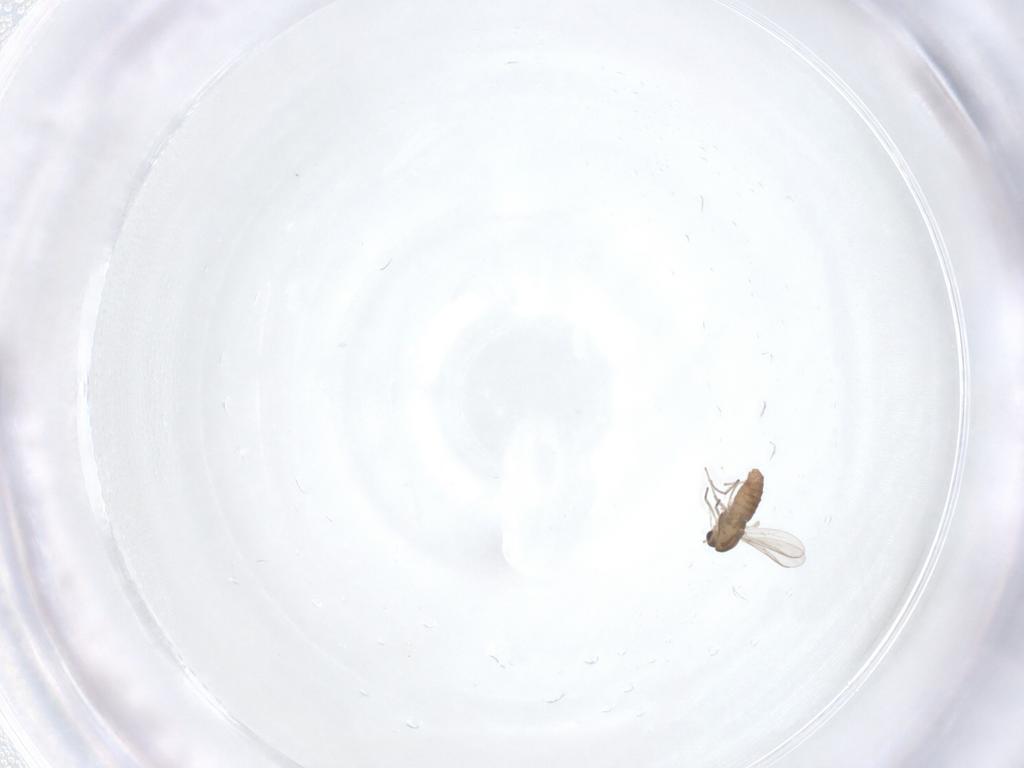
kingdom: Animalia
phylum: Arthropoda
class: Insecta
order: Diptera
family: Chironomidae
